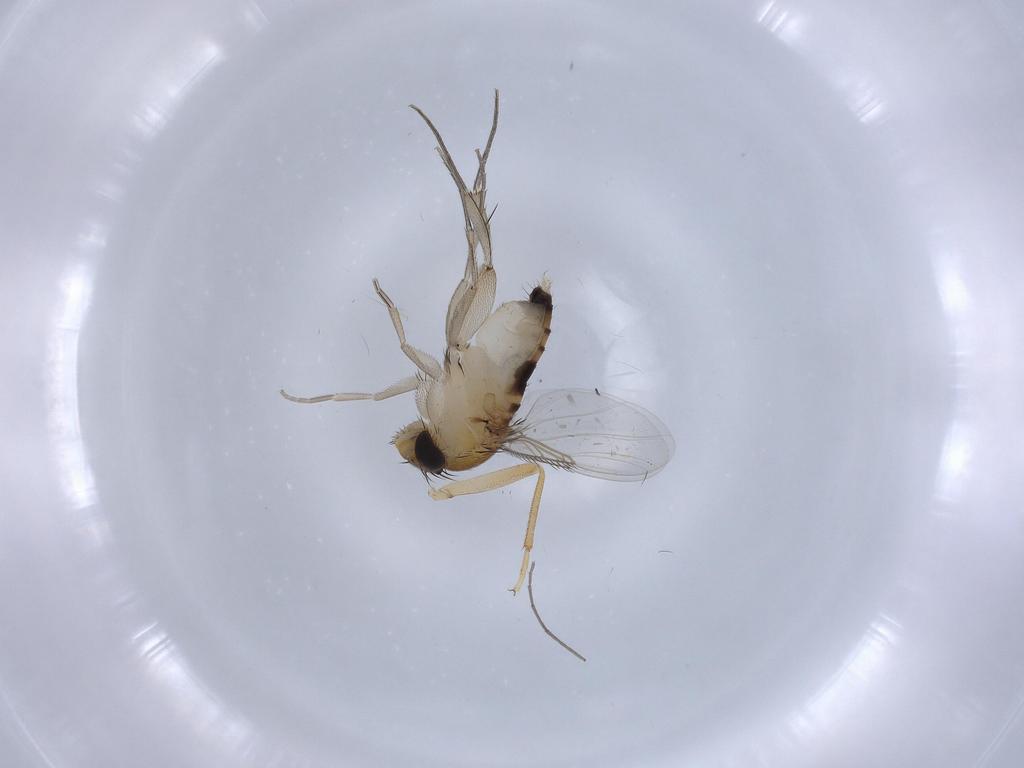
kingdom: Animalia
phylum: Arthropoda
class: Insecta
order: Diptera
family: Phoridae
